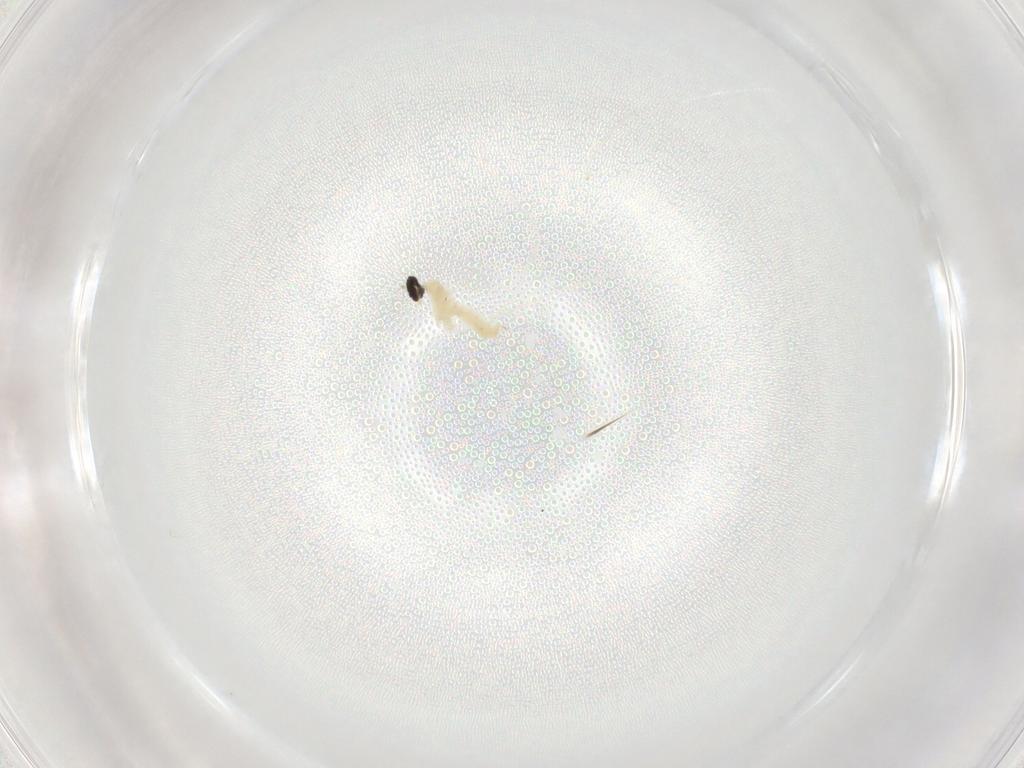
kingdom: Animalia
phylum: Arthropoda
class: Insecta
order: Diptera
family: Cecidomyiidae
